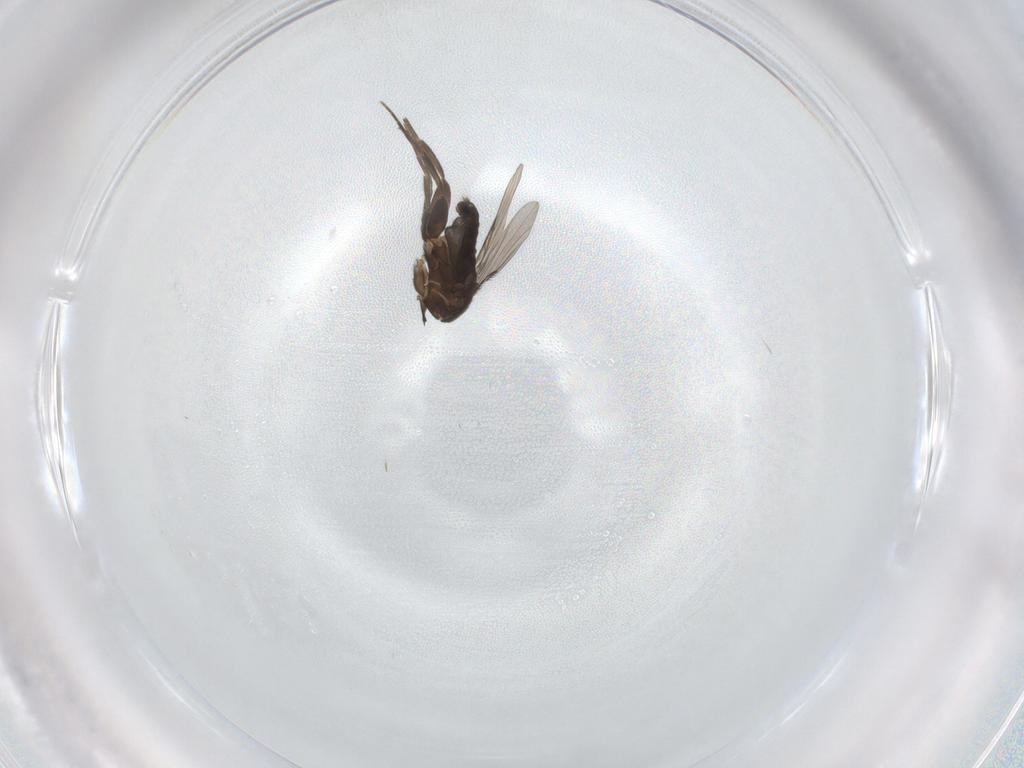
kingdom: Animalia
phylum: Arthropoda
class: Insecta
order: Diptera
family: Phoridae
